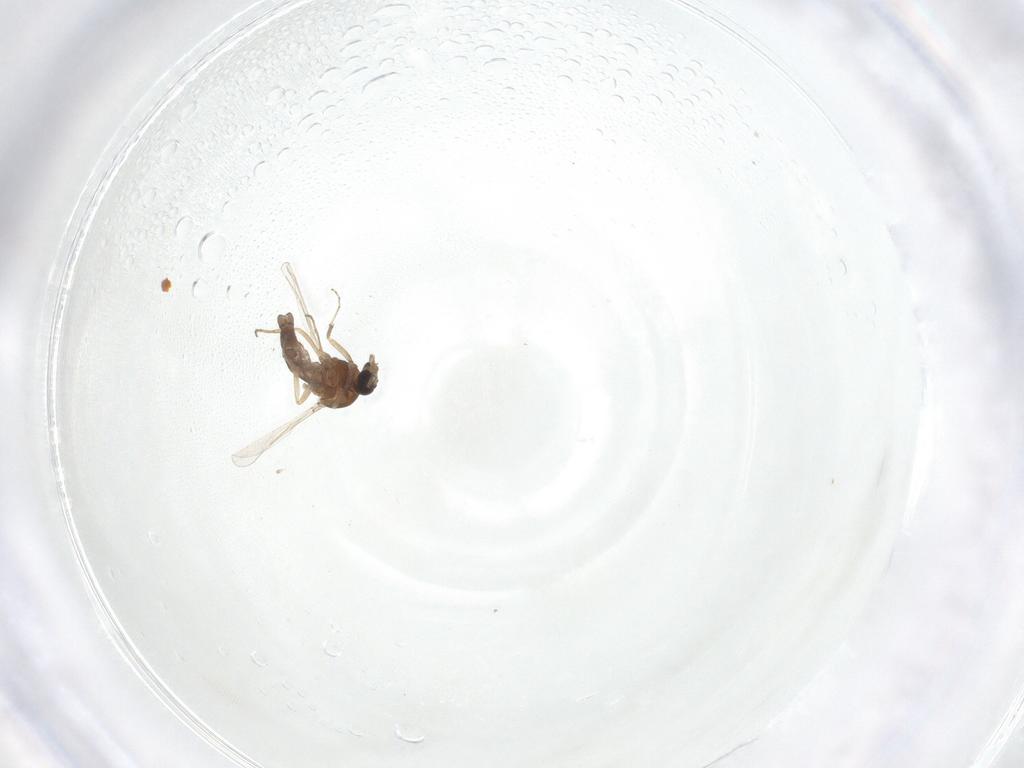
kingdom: Animalia
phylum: Arthropoda
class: Insecta
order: Diptera
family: Ceratopogonidae
